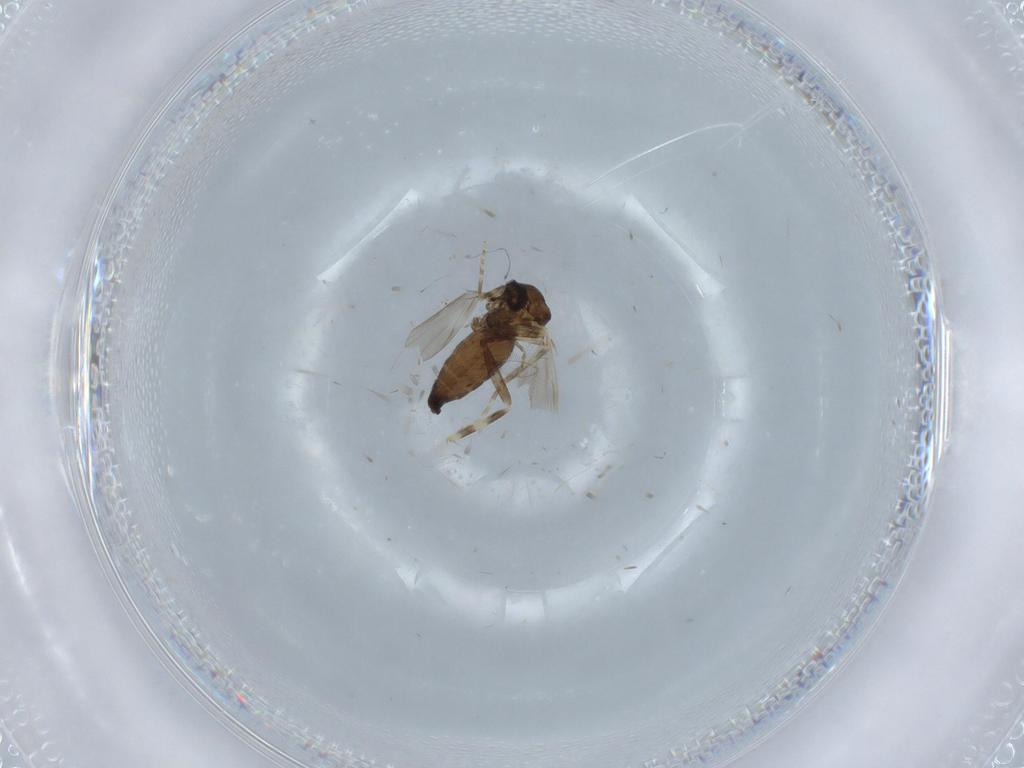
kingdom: Animalia
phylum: Arthropoda
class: Insecta
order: Diptera
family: Ceratopogonidae
